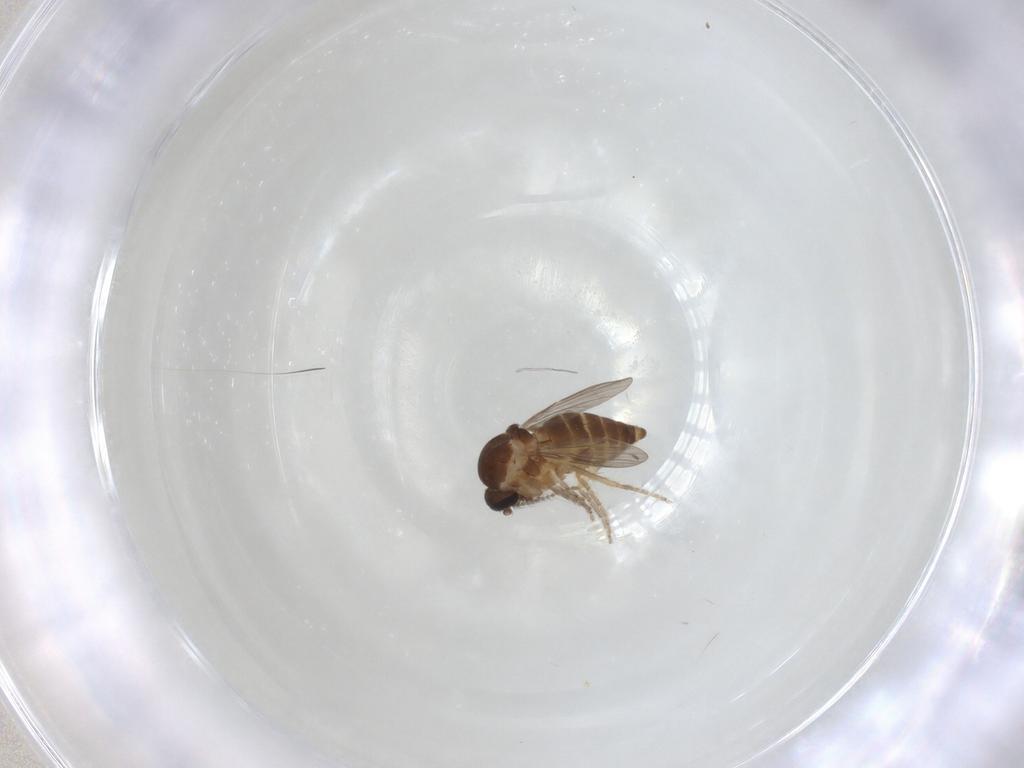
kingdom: Animalia
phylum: Arthropoda
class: Insecta
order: Diptera
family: Ceratopogonidae
